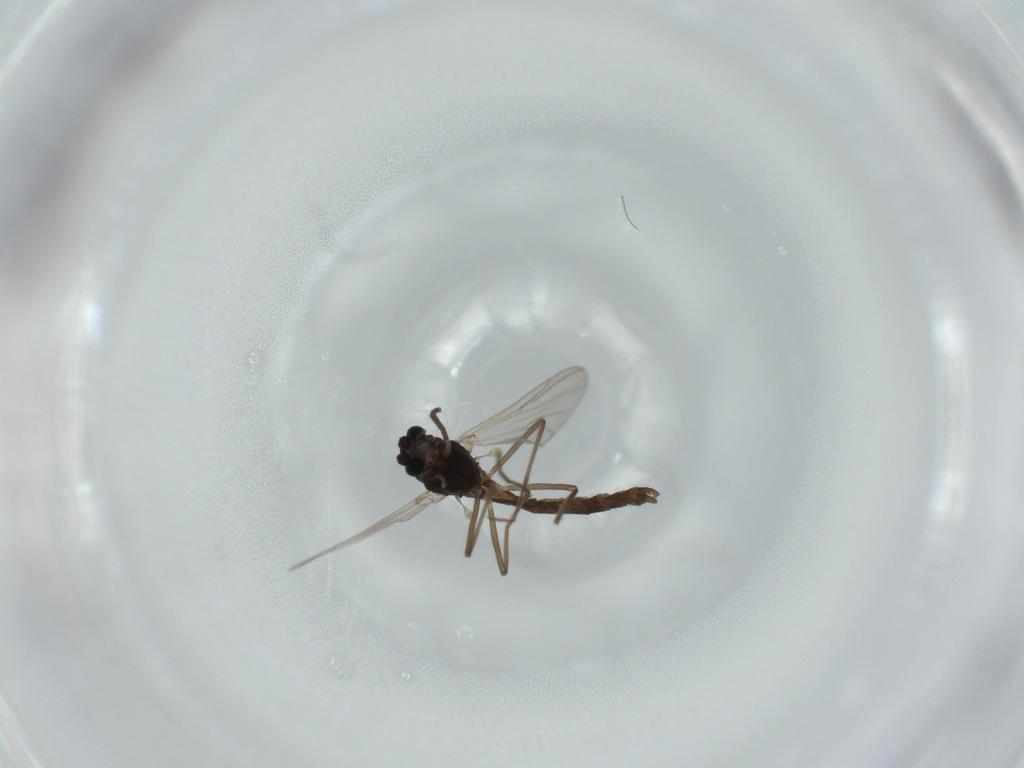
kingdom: Animalia
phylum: Arthropoda
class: Insecta
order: Diptera
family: Chironomidae
